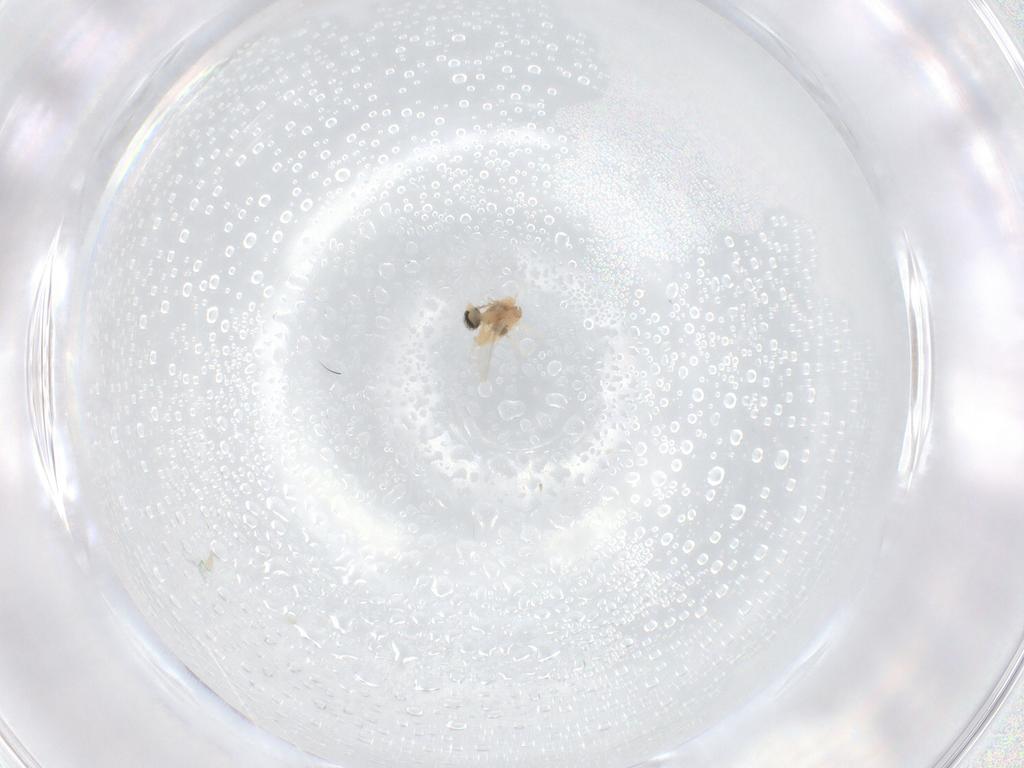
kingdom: Animalia
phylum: Arthropoda
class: Insecta
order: Diptera
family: Cecidomyiidae
